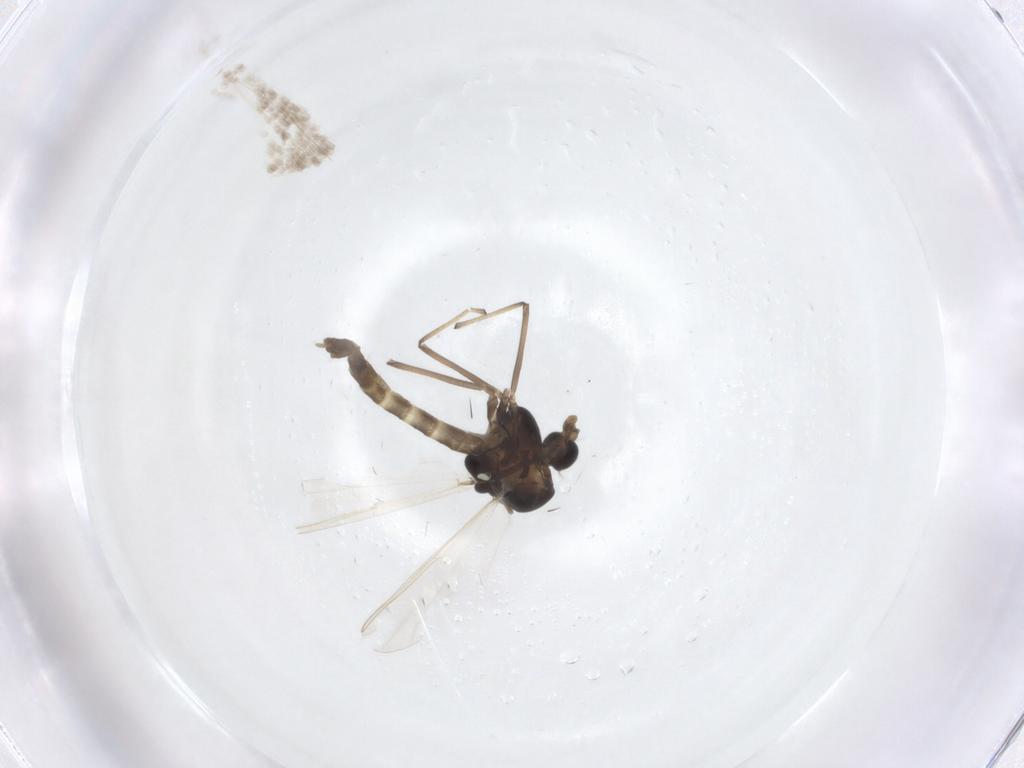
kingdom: Animalia
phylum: Arthropoda
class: Insecta
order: Diptera
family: Chironomidae
